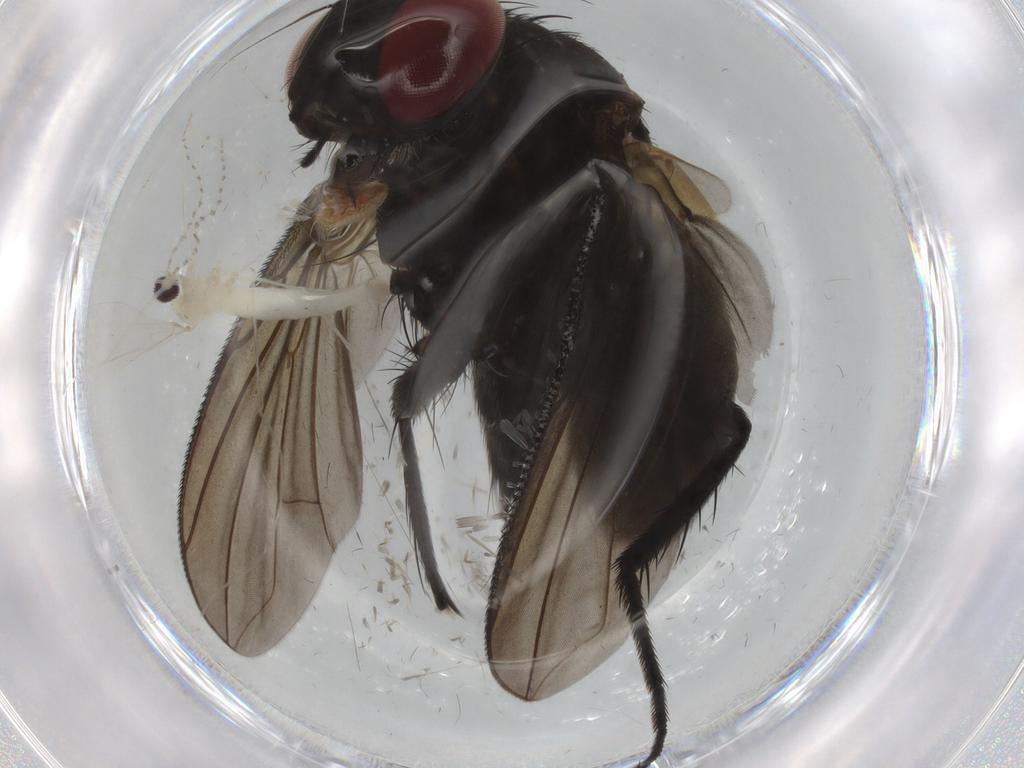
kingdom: Animalia
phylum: Arthropoda
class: Insecta
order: Diptera
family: Cecidomyiidae
